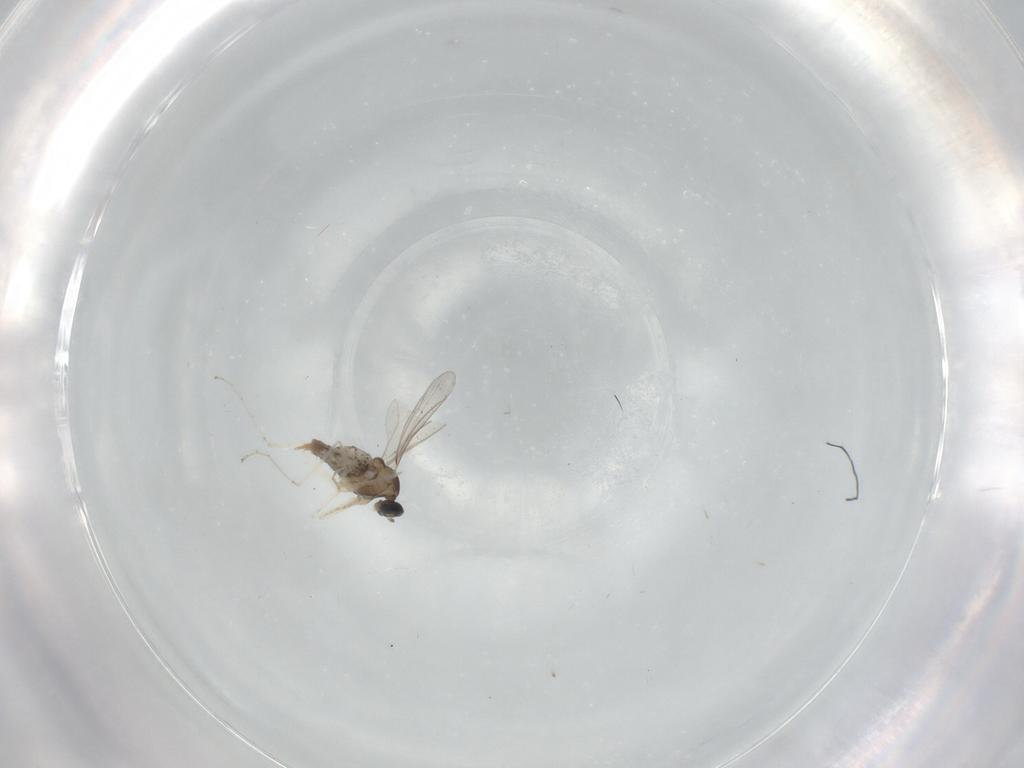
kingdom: Animalia
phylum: Arthropoda
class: Insecta
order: Diptera
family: Cecidomyiidae
